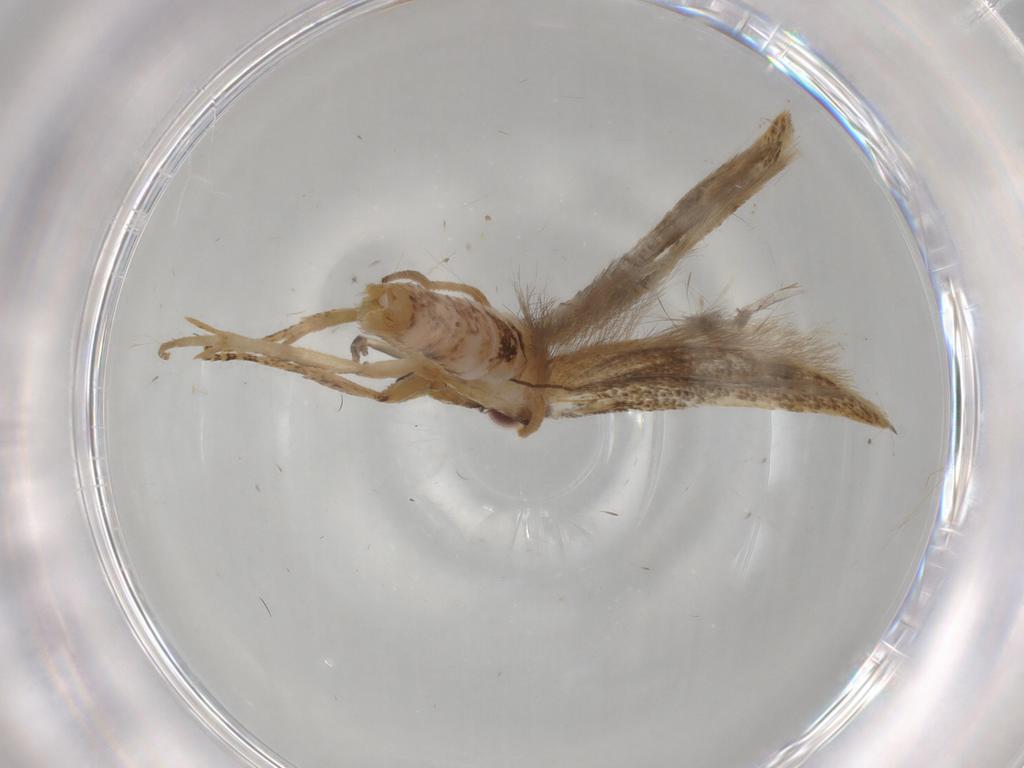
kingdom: Animalia
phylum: Arthropoda
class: Insecta
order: Lepidoptera
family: Gelechiidae
